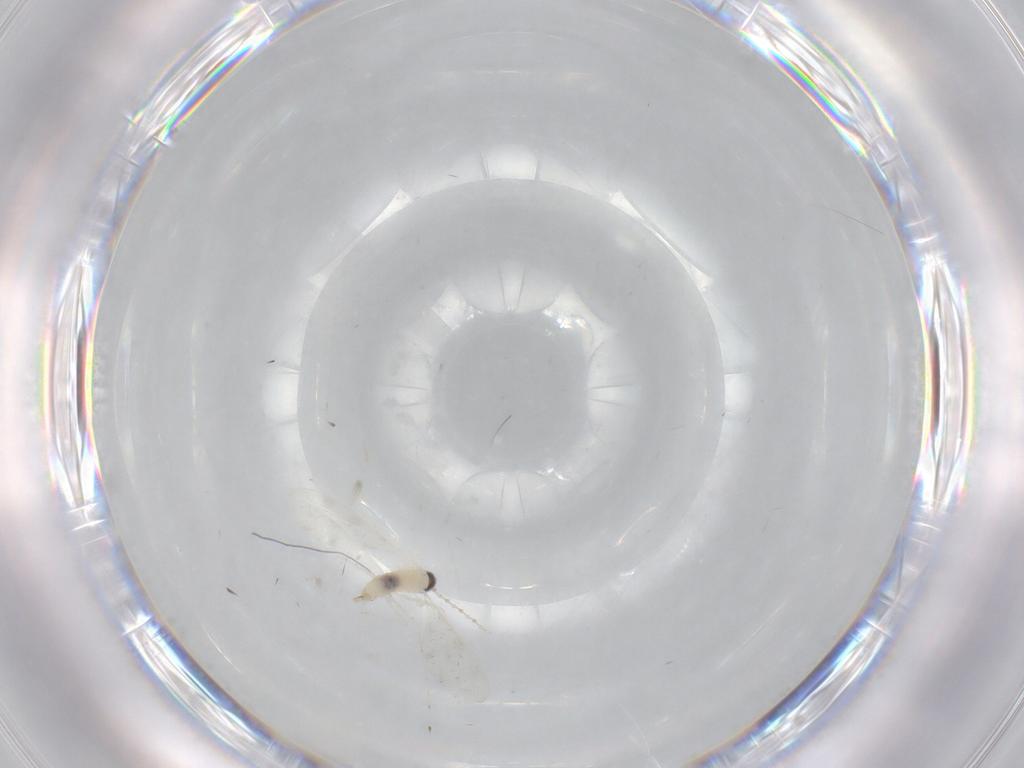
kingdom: Animalia
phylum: Arthropoda
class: Insecta
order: Diptera
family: Cecidomyiidae
